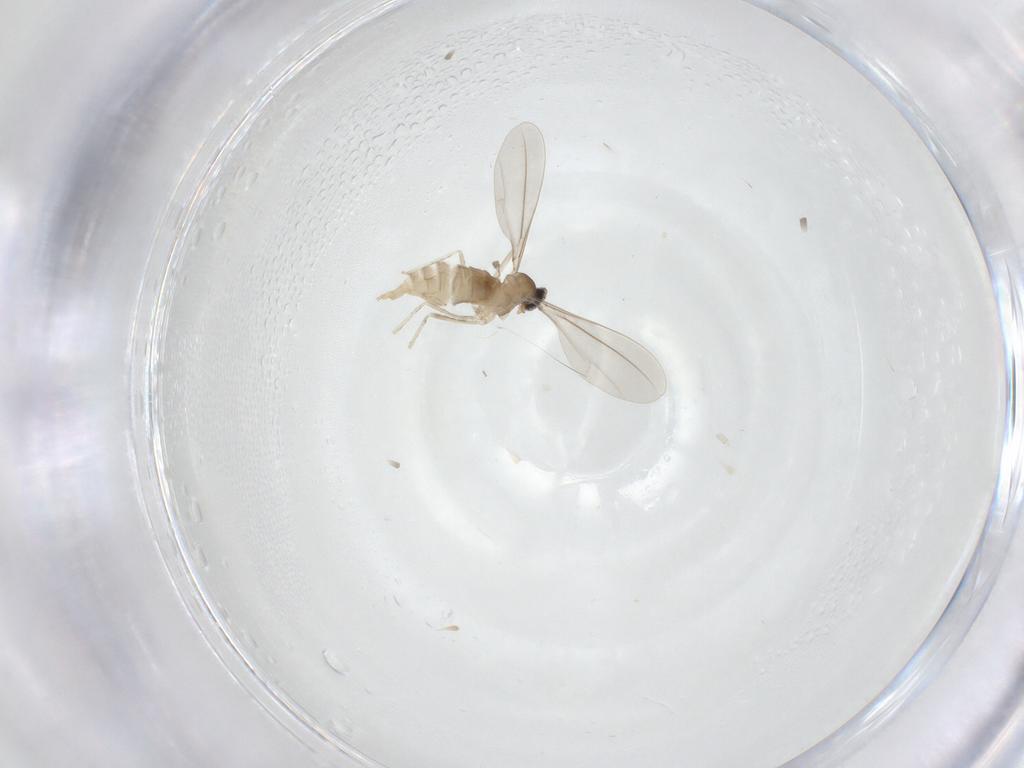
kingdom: Animalia
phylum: Arthropoda
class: Insecta
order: Diptera
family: Cecidomyiidae
